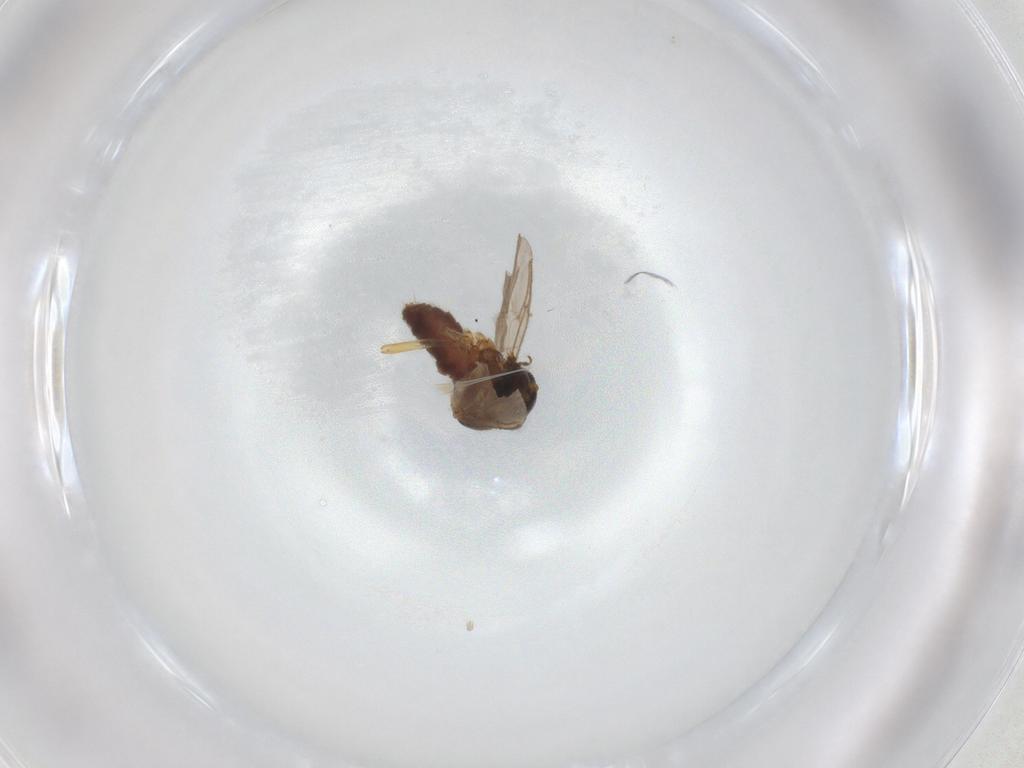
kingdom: Animalia
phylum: Arthropoda
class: Insecta
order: Diptera
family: Ceratopogonidae
